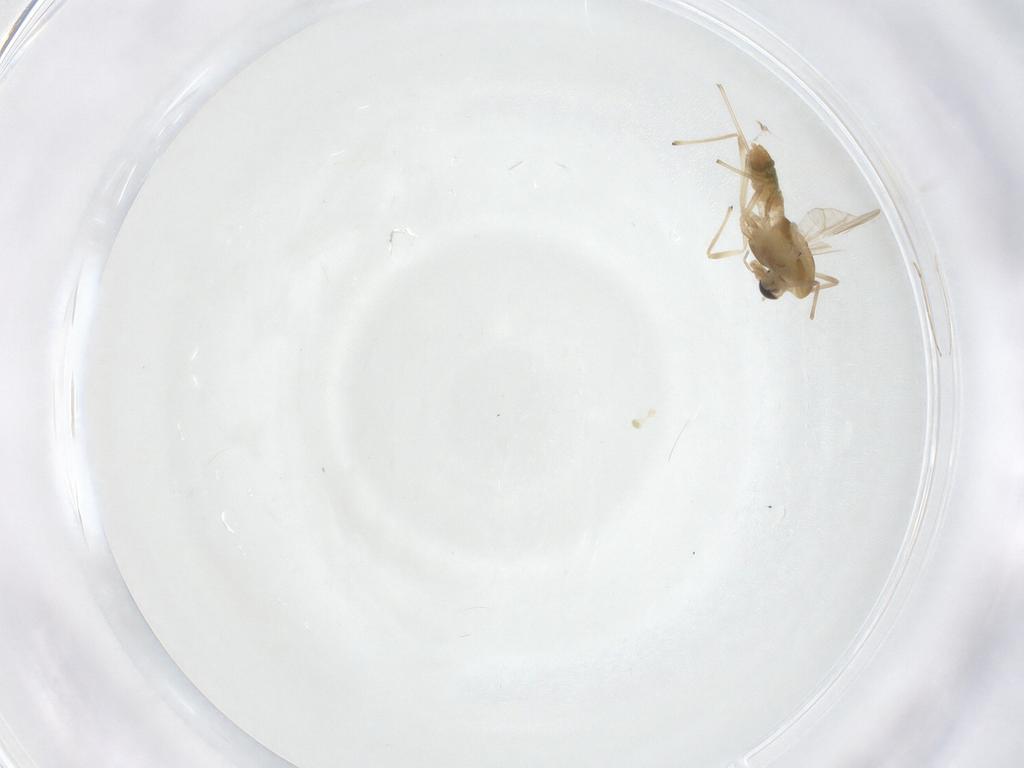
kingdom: Animalia
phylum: Arthropoda
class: Insecta
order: Diptera
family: Chironomidae
